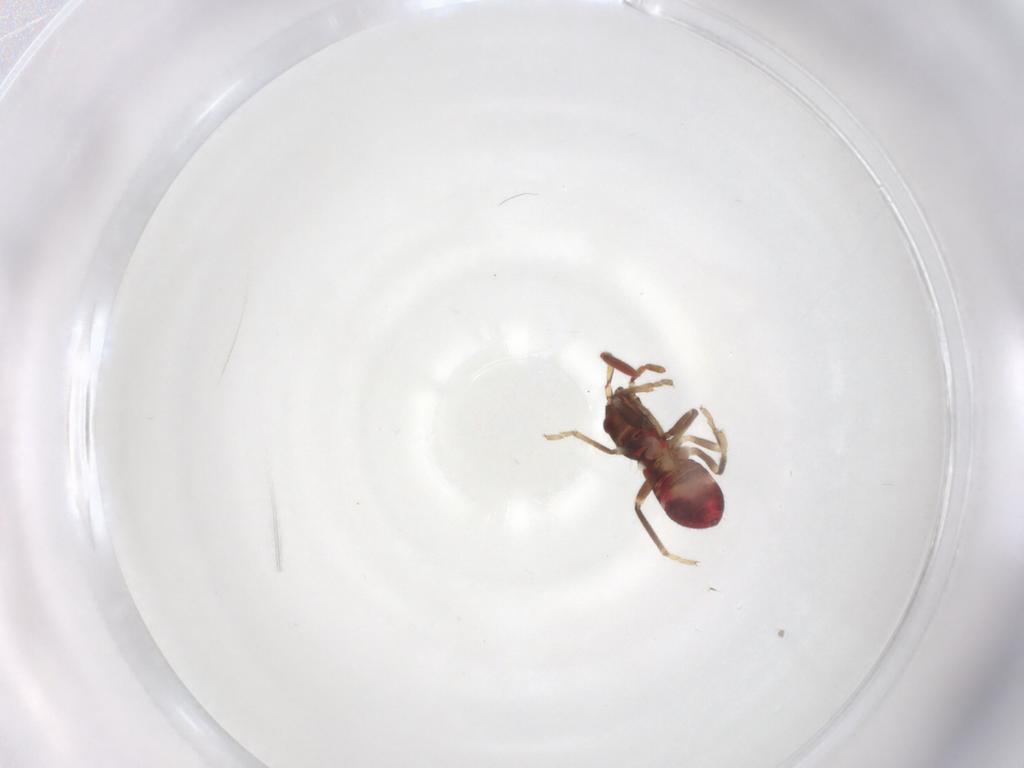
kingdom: Animalia
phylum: Arthropoda
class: Insecta
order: Hemiptera
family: Rhyparochromidae
